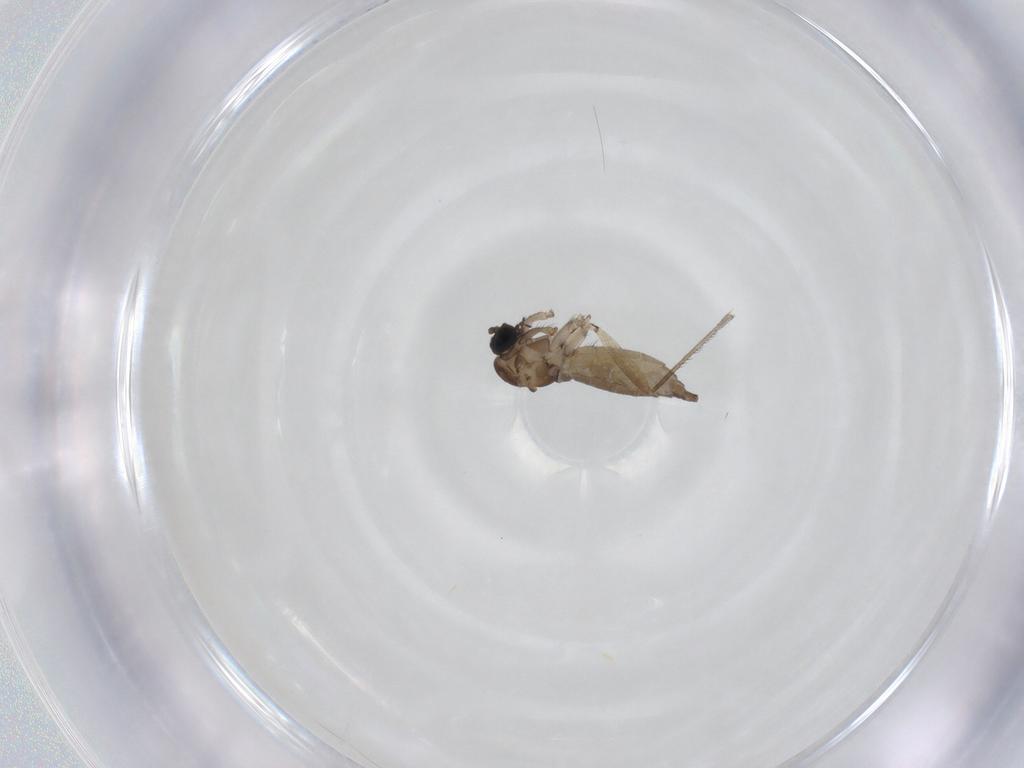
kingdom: Animalia
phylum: Arthropoda
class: Insecta
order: Diptera
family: Sciaridae
